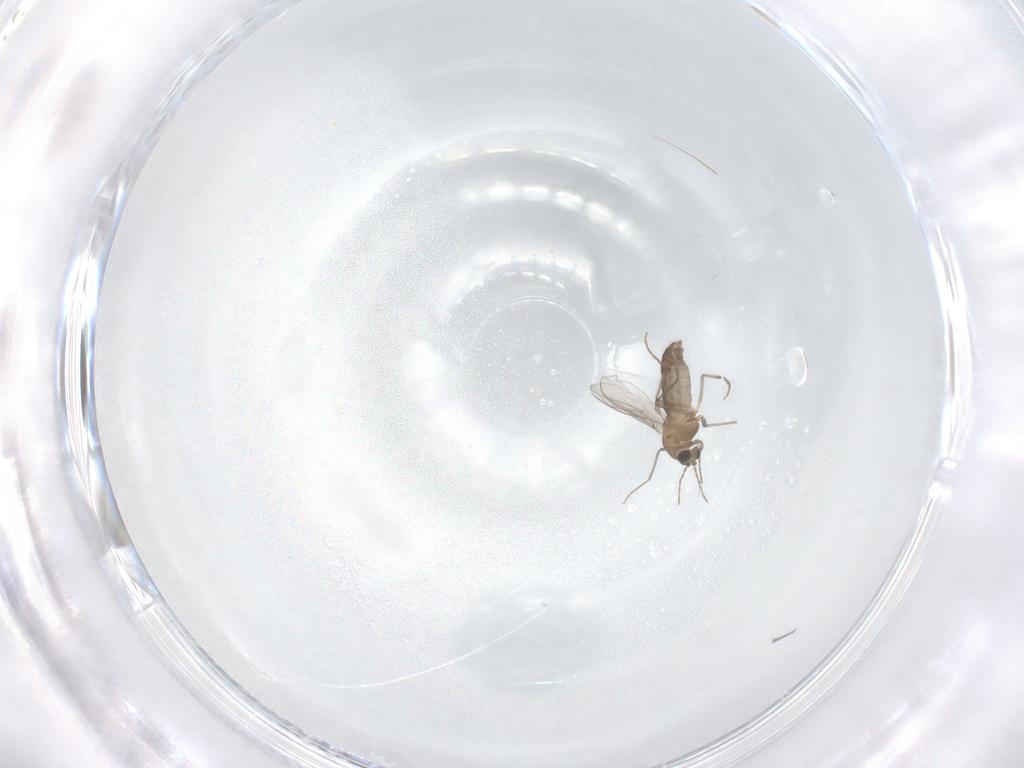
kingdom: Animalia
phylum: Arthropoda
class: Insecta
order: Diptera
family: Chironomidae
